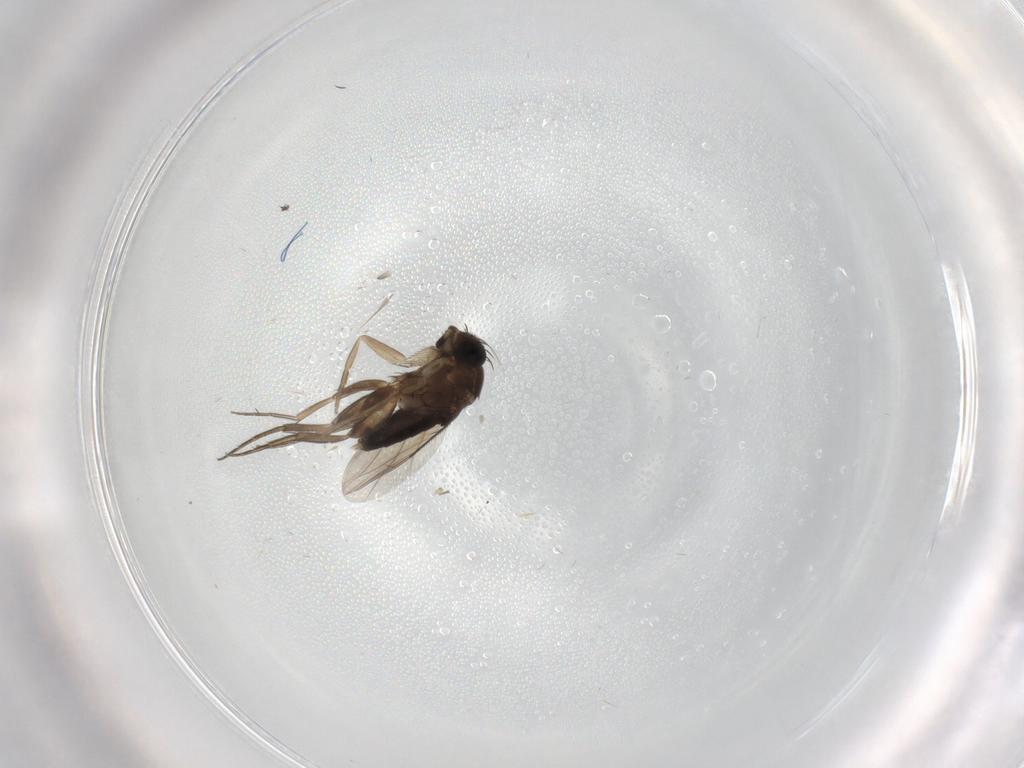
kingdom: Animalia
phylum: Arthropoda
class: Insecta
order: Diptera
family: Phoridae
